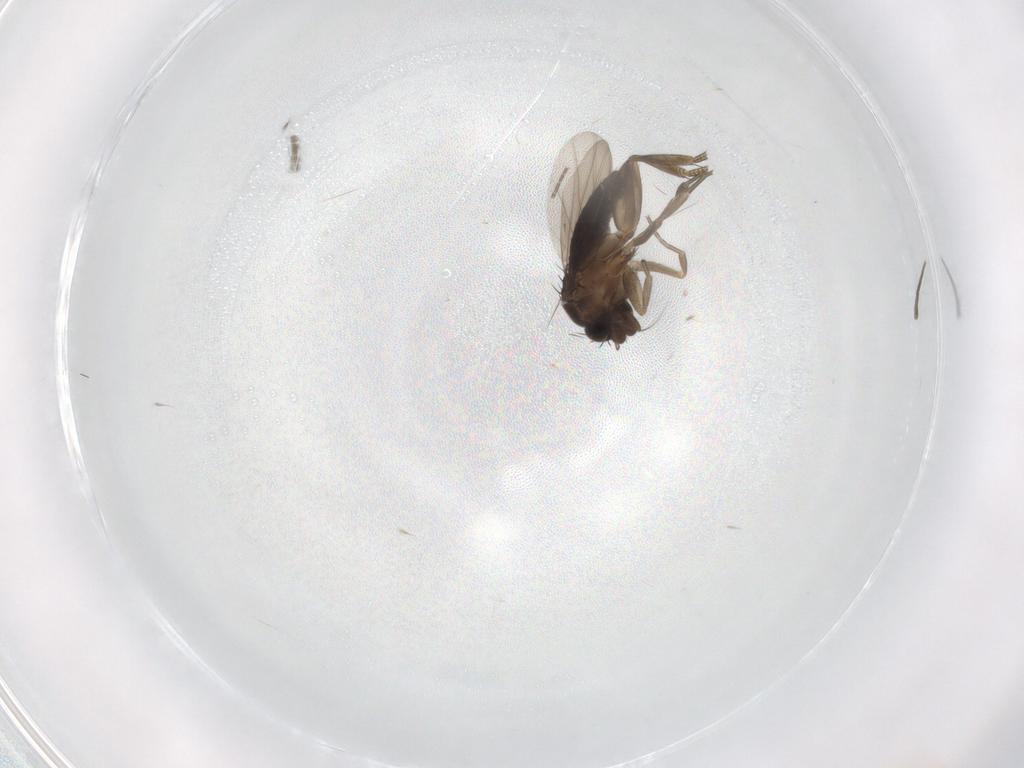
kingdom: Animalia
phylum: Arthropoda
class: Insecta
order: Diptera
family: Phoridae
